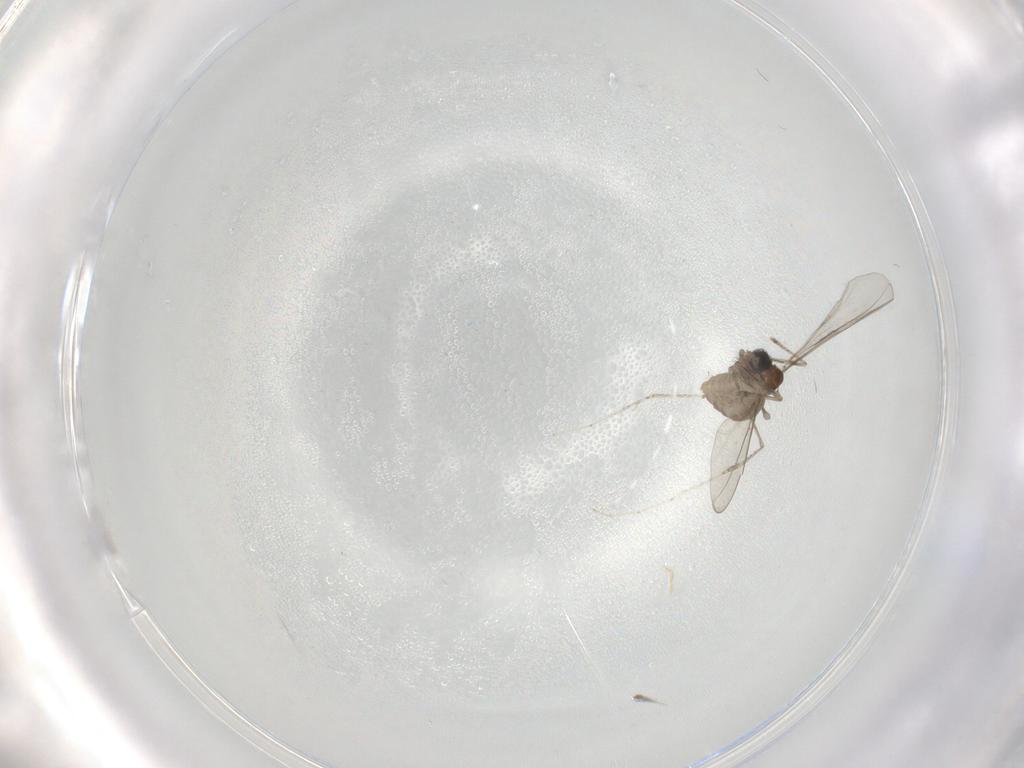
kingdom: Animalia
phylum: Arthropoda
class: Insecta
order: Diptera
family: Cecidomyiidae
